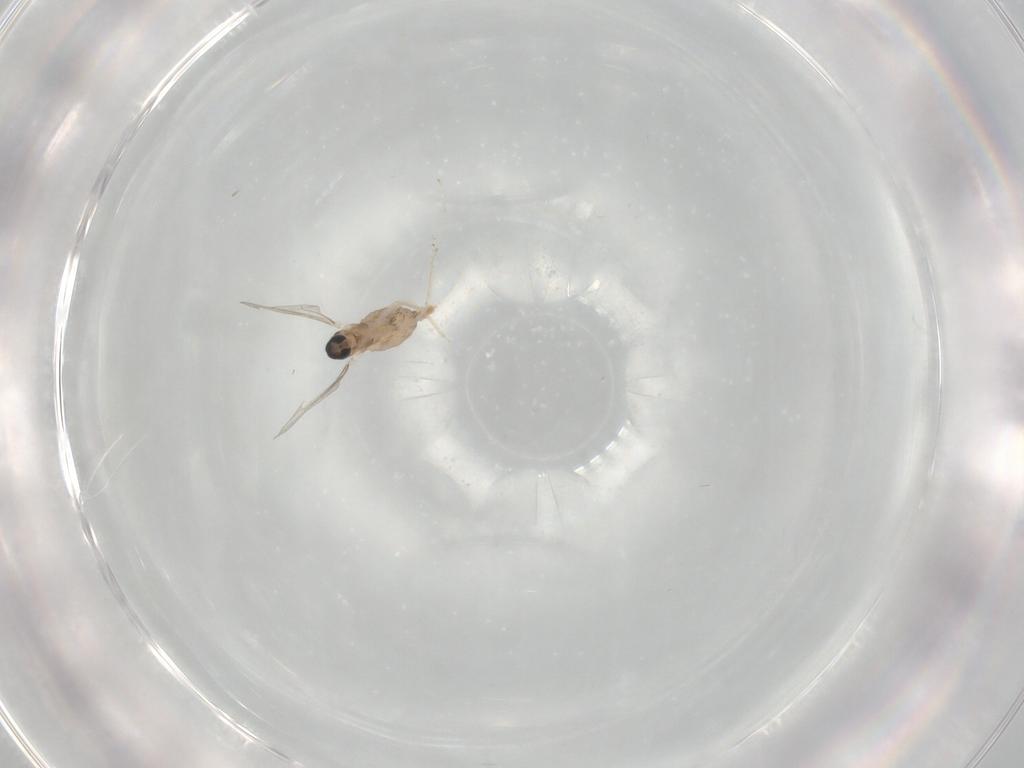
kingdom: Animalia
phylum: Arthropoda
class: Insecta
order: Diptera
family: Cecidomyiidae
